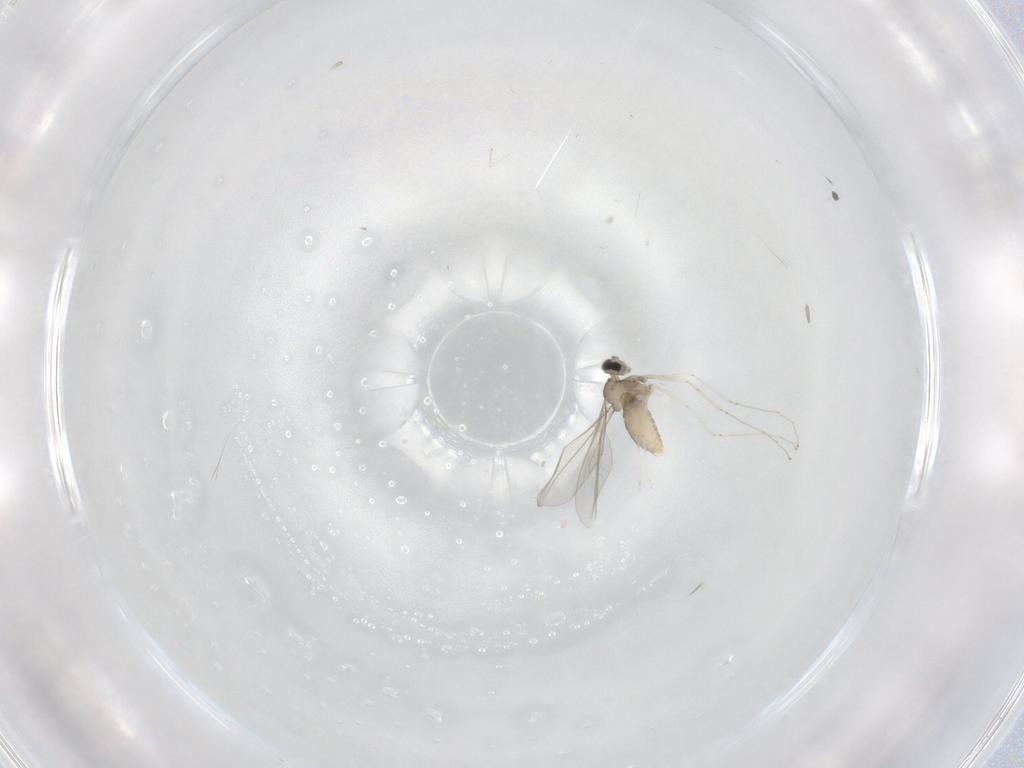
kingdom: Animalia
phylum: Arthropoda
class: Insecta
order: Diptera
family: Cecidomyiidae
